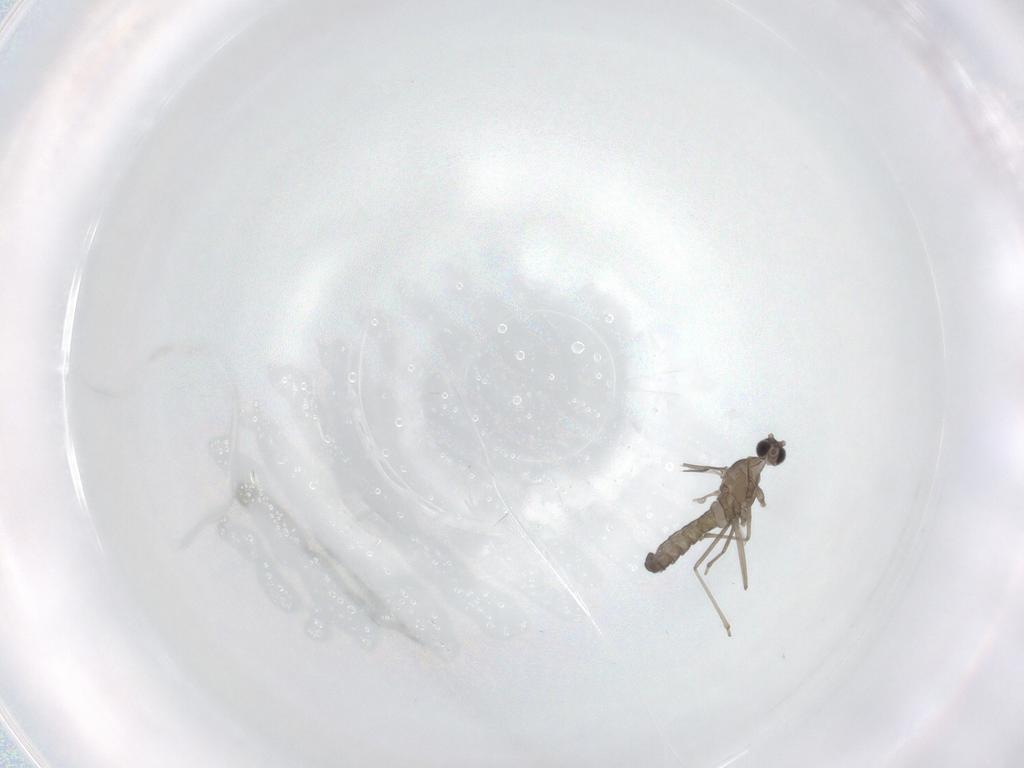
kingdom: Animalia
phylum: Arthropoda
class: Insecta
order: Diptera
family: Cecidomyiidae
